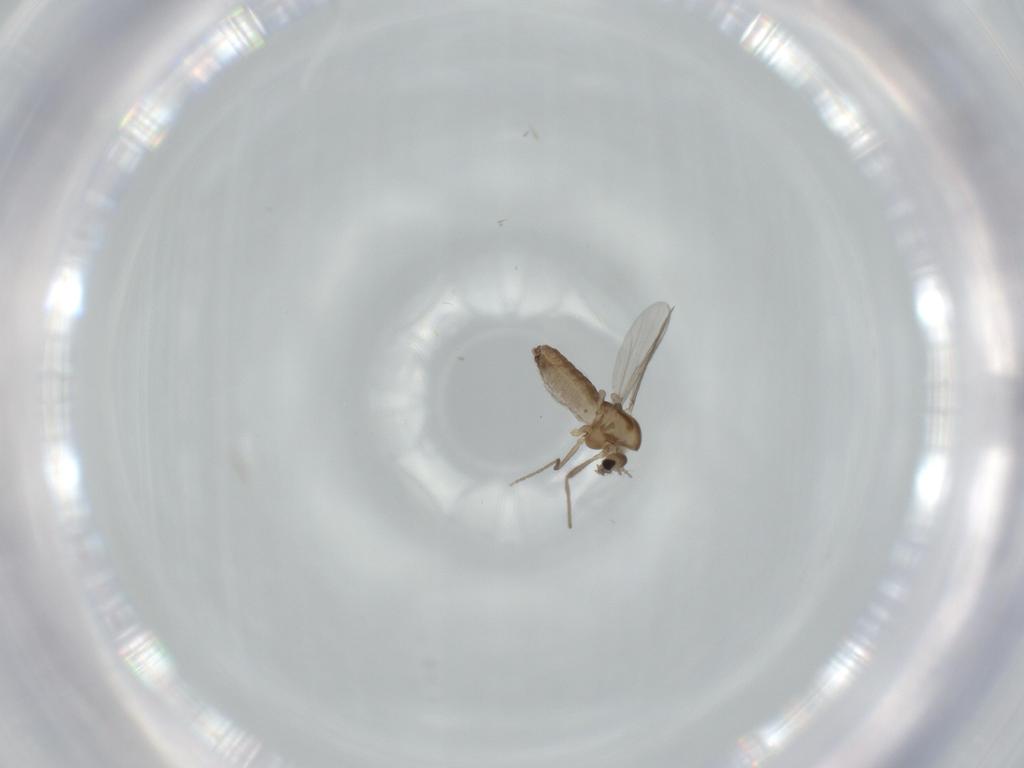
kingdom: Animalia
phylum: Arthropoda
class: Insecta
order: Diptera
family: Chironomidae
